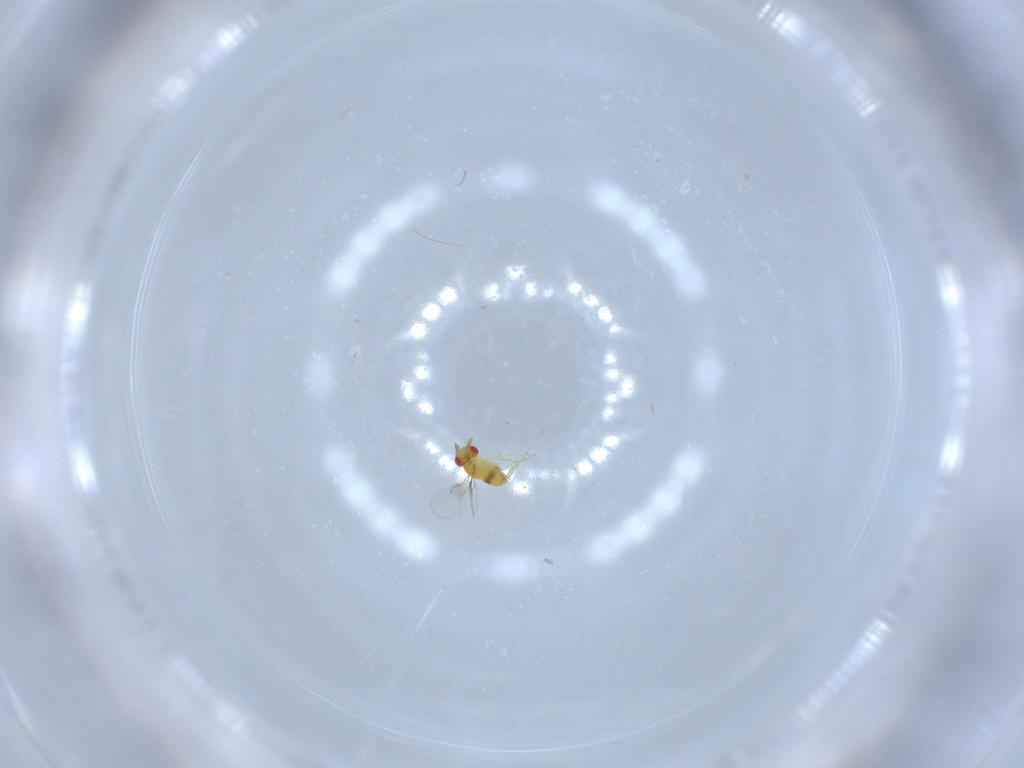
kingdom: Animalia
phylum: Arthropoda
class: Insecta
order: Hymenoptera
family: Trichogrammatidae
